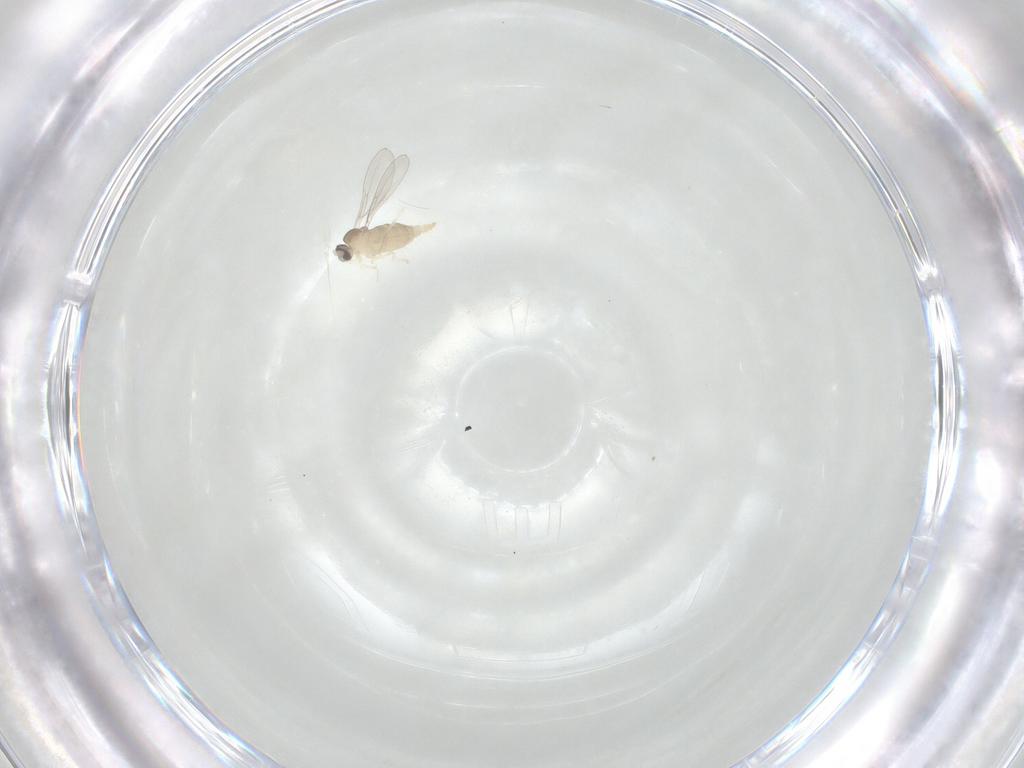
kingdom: Animalia
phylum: Arthropoda
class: Insecta
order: Diptera
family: Cecidomyiidae
